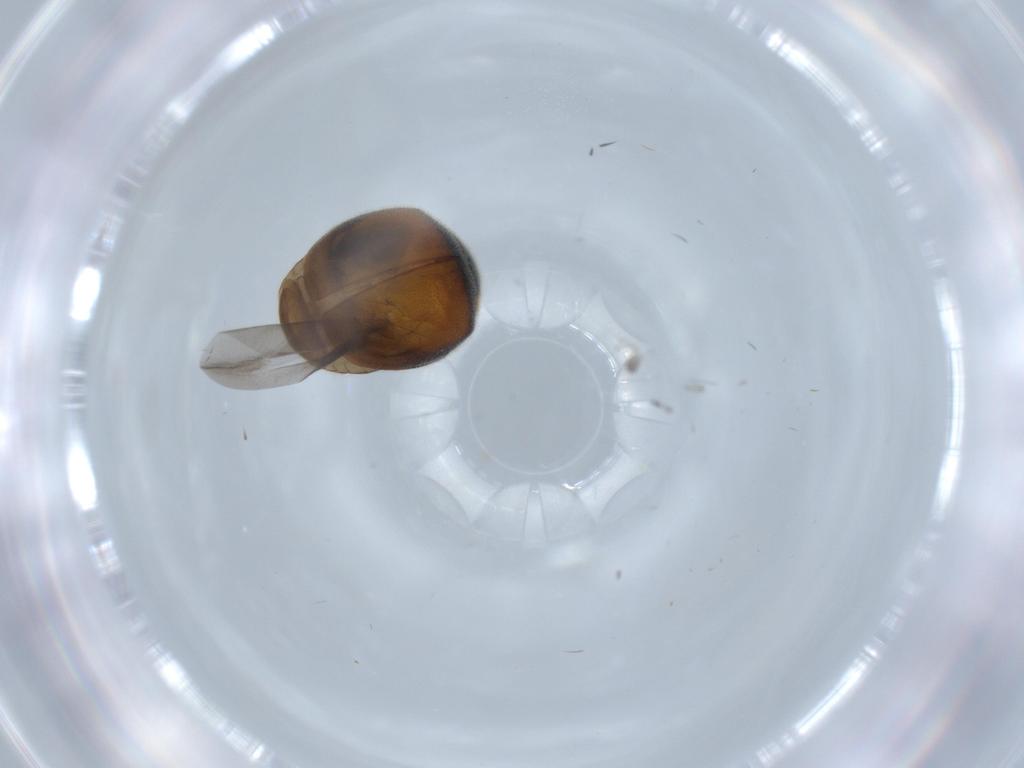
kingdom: Animalia
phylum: Arthropoda
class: Insecta
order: Coleoptera
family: Coccinellidae
